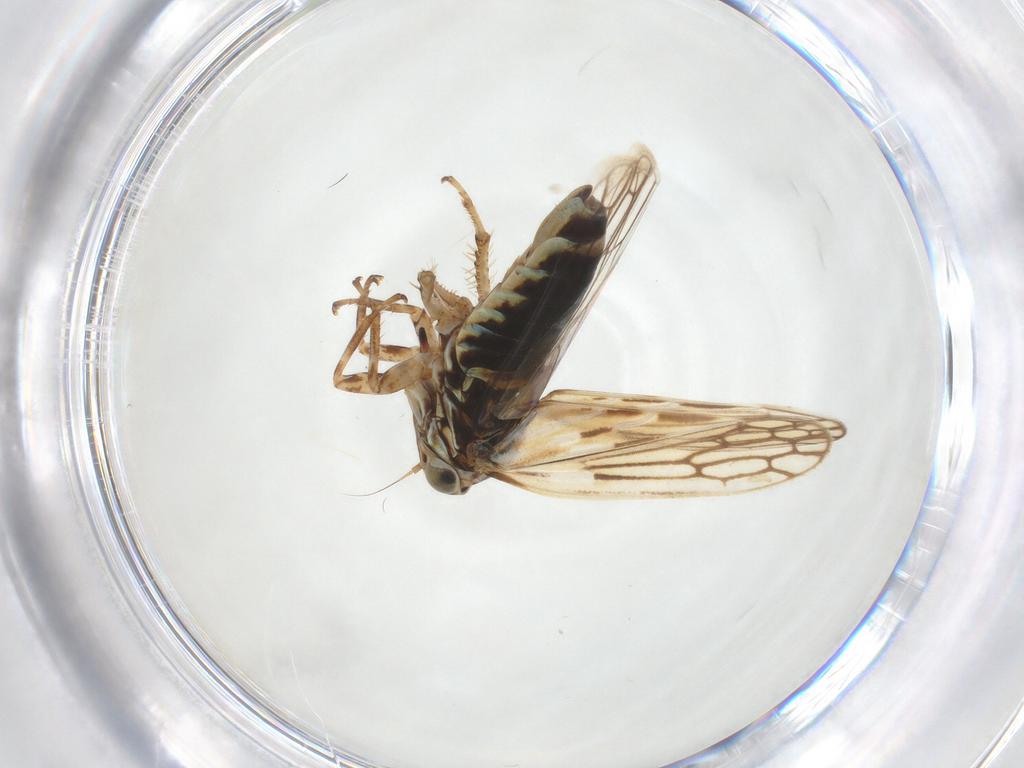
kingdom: Animalia
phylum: Arthropoda
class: Insecta
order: Hemiptera
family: Cicadellidae
